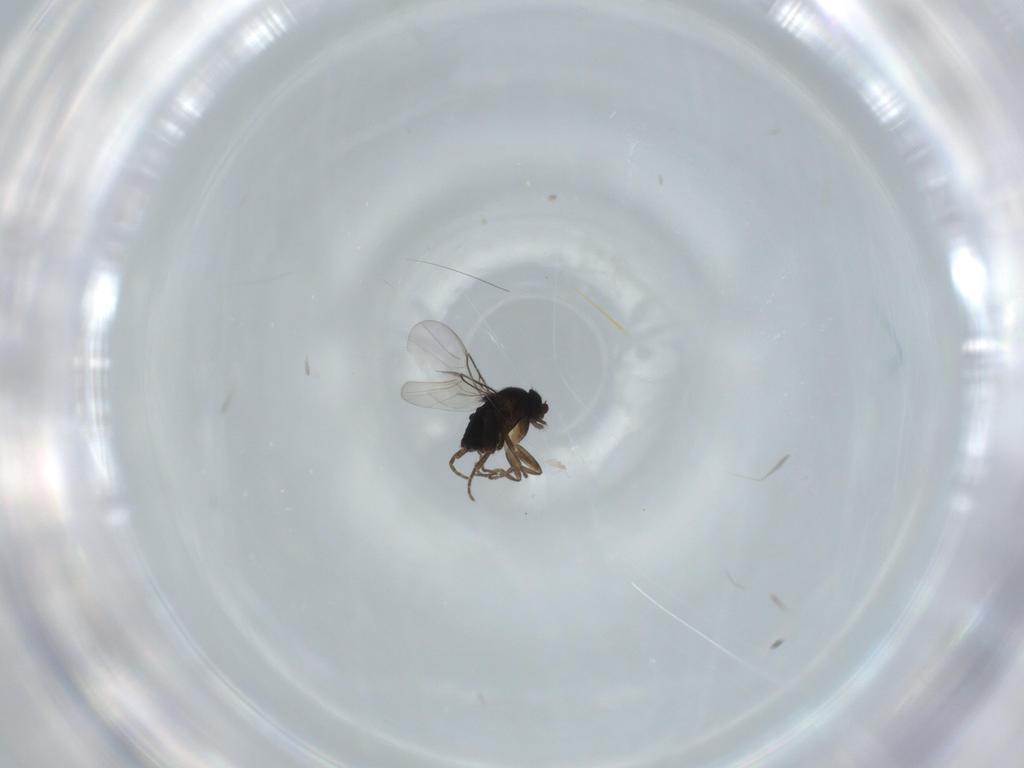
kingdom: Animalia
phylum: Arthropoda
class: Insecta
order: Diptera
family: Phoridae
